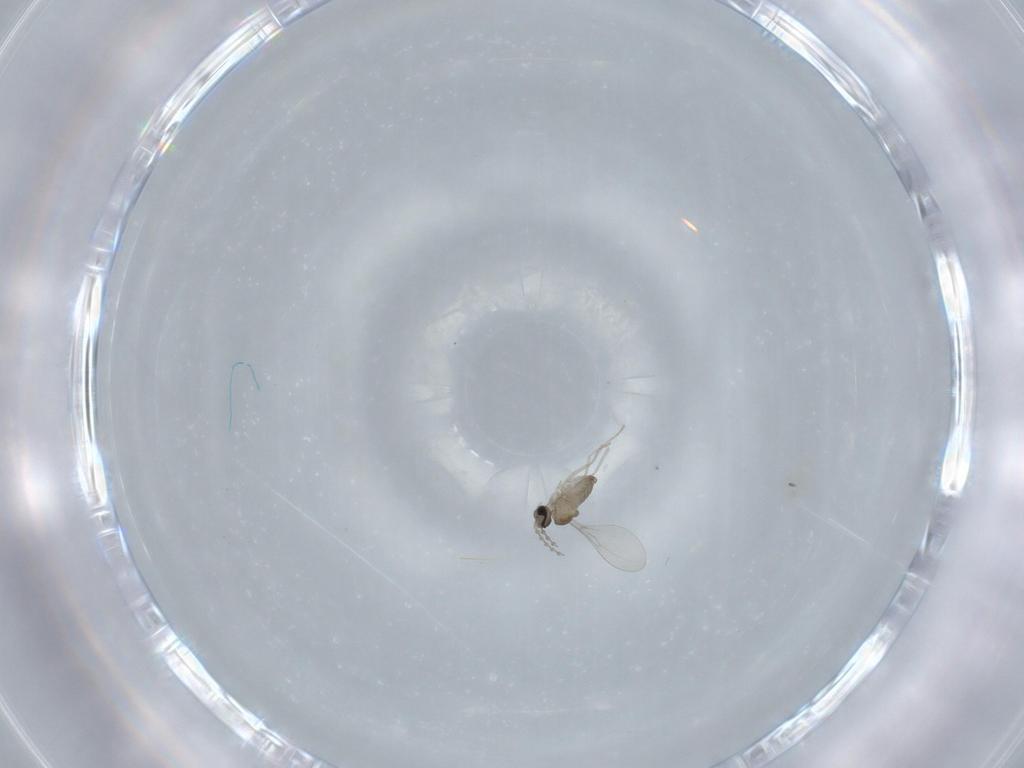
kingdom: Animalia
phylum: Arthropoda
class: Insecta
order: Diptera
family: Cecidomyiidae
